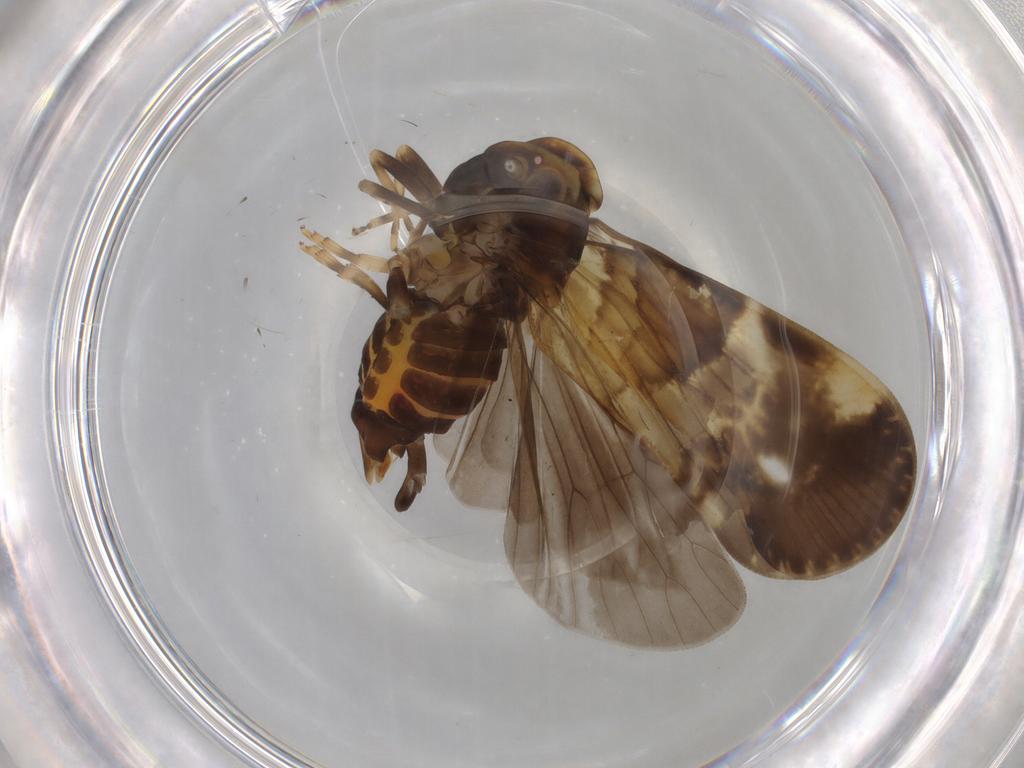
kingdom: Animalia
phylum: Arthropoda
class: Insecta
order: Hemiptera
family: Cixiidae
